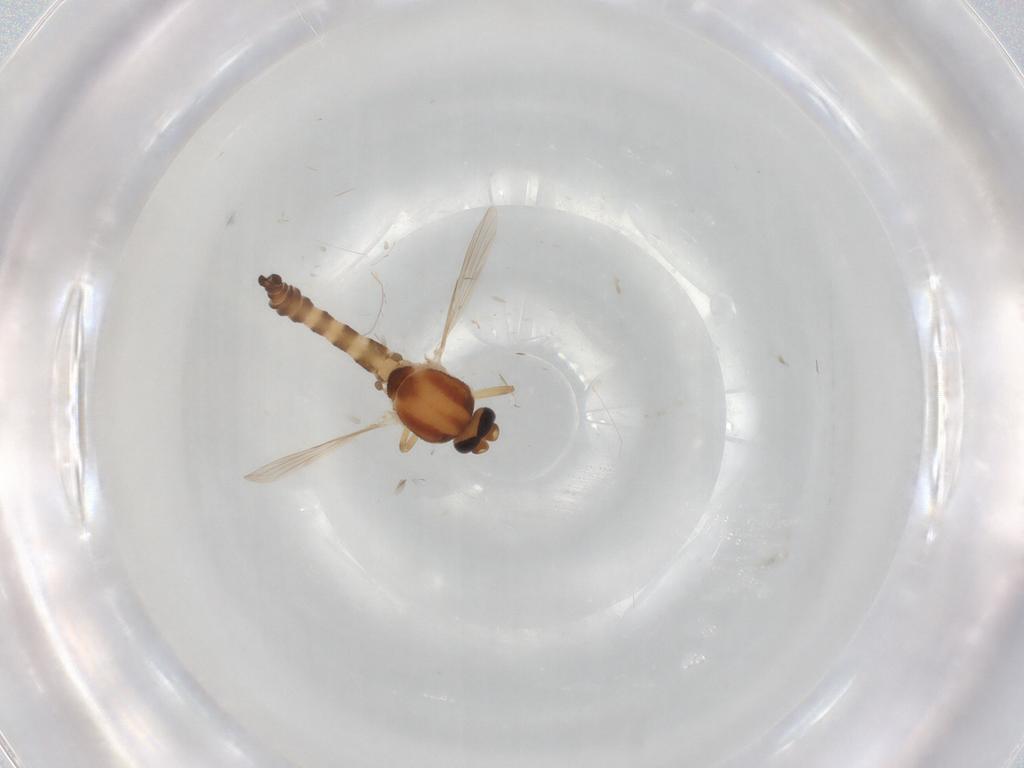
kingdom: Animalia
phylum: Arthropoda
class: Insecta
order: Diptera
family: Ceratopogonidae
